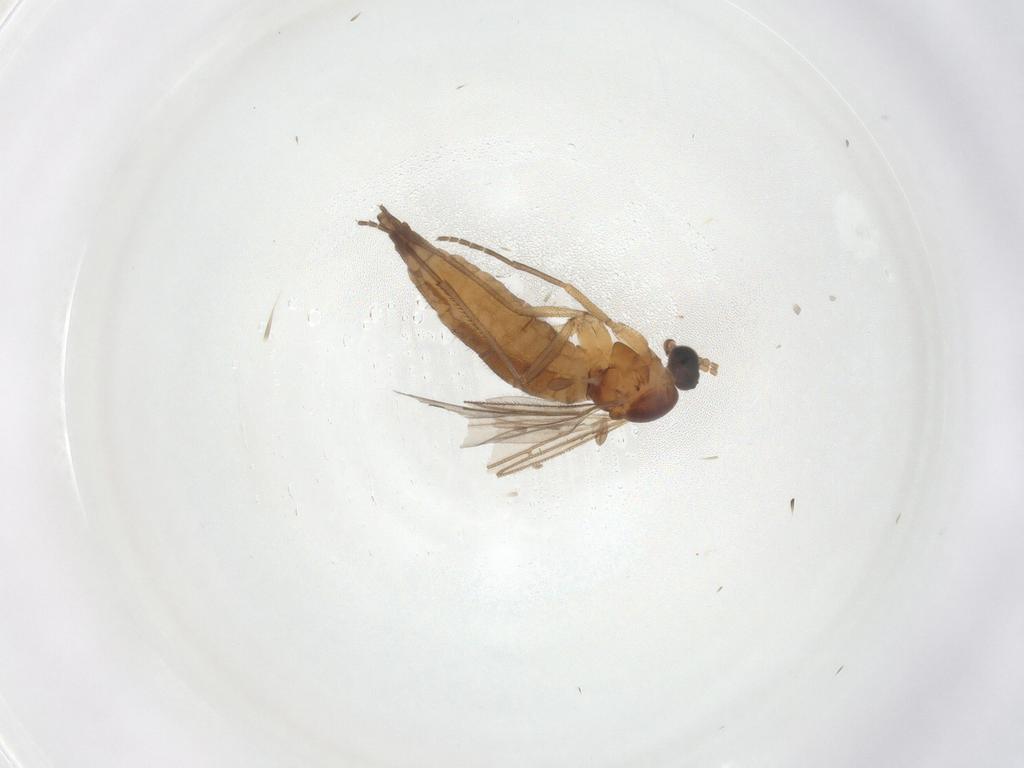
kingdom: Animalia
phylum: Arthropoda
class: Insecta
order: Diptera
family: Sciaridae
